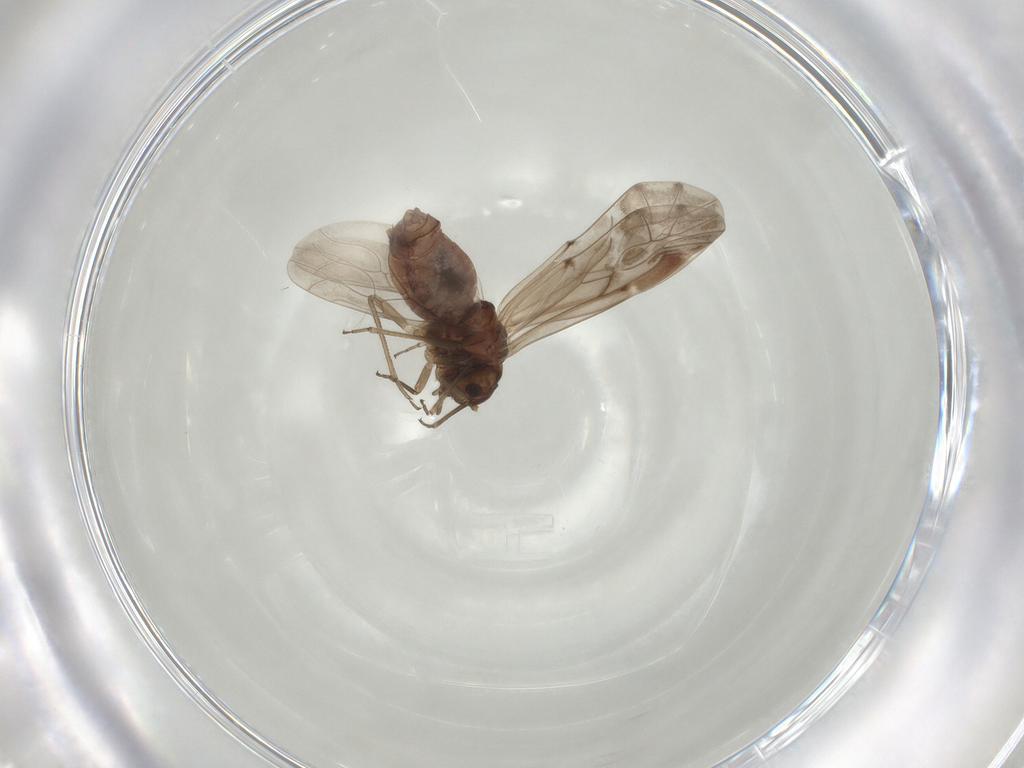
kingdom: Animalia
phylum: Arthropoda
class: Insecta
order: Psocodea
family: Peripsocidae
